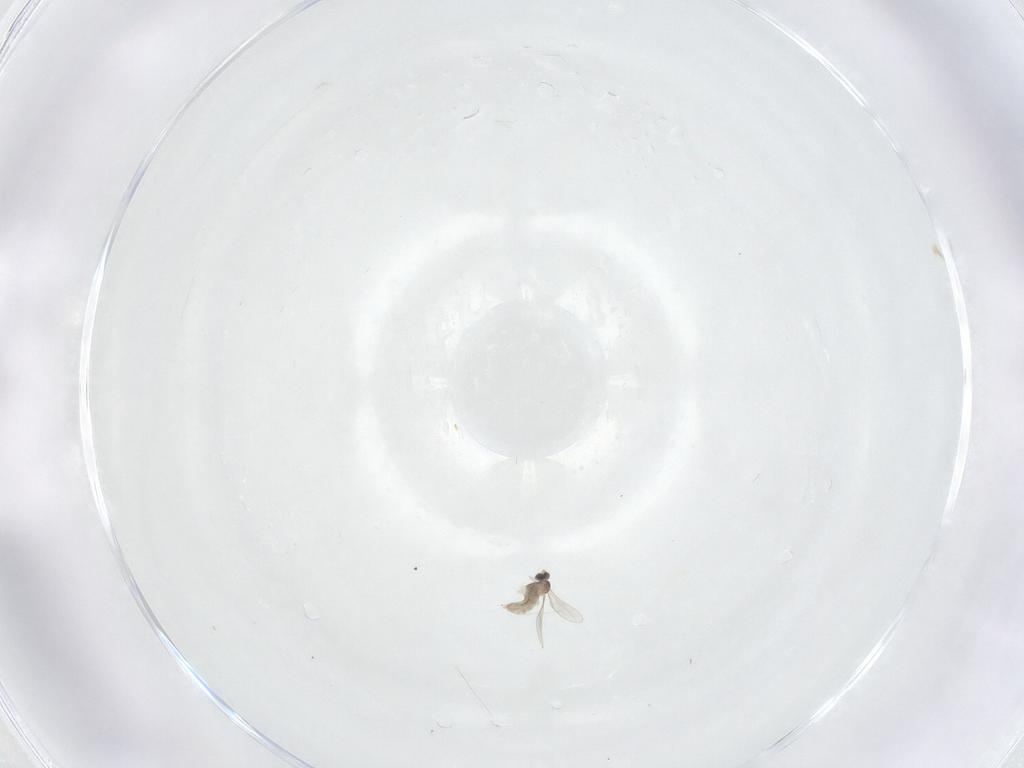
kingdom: Animalia
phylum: Arthropoda
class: Insecta
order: Diptera
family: Cecidomyiidae
